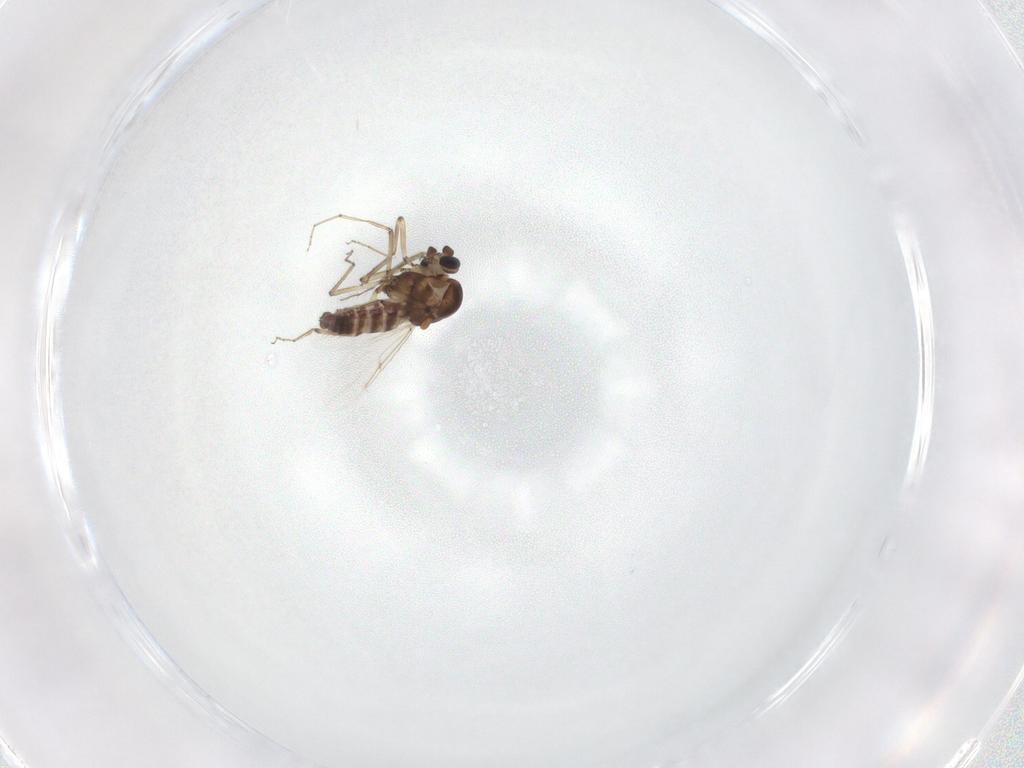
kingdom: Animalia
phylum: Arthropoda
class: Insecta
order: Diptera
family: Ceratopogonidae
